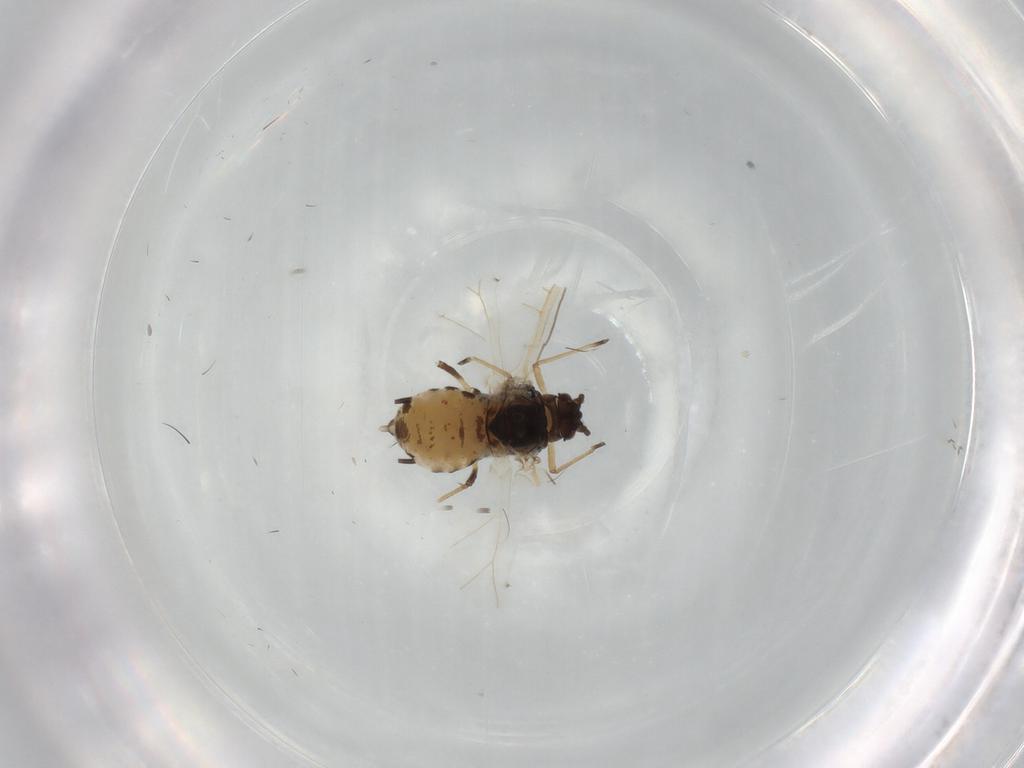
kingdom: Animalia
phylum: Arthropoda
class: Insecta
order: Hemiptera
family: Aphididae
